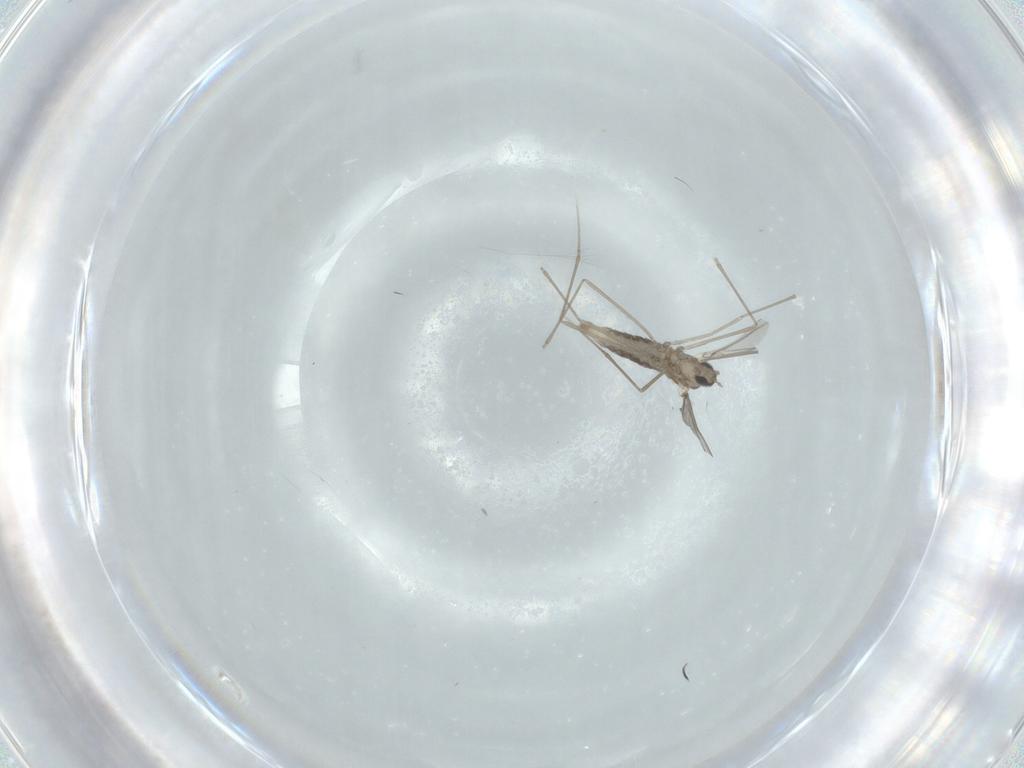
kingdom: Animalia
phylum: Arthropoda
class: Insecta
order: Diptera
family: Cecidomyiidae
